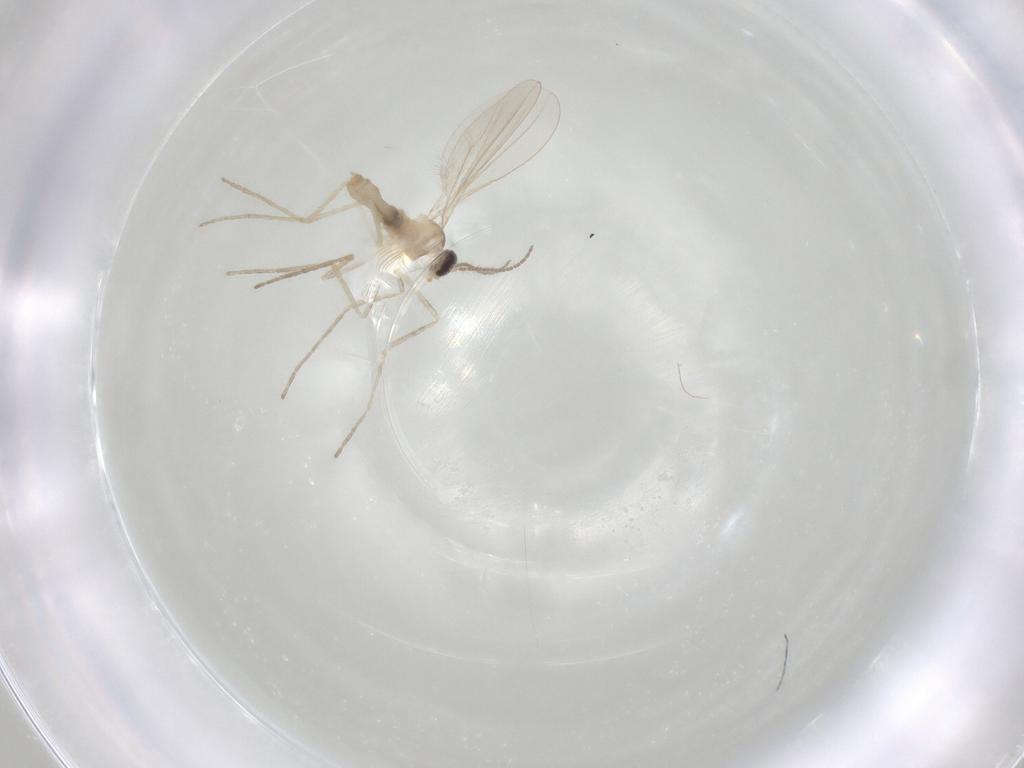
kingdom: Animalia
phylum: Arthropoda
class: Insecta
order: Diptera
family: Cecidomyiidae
